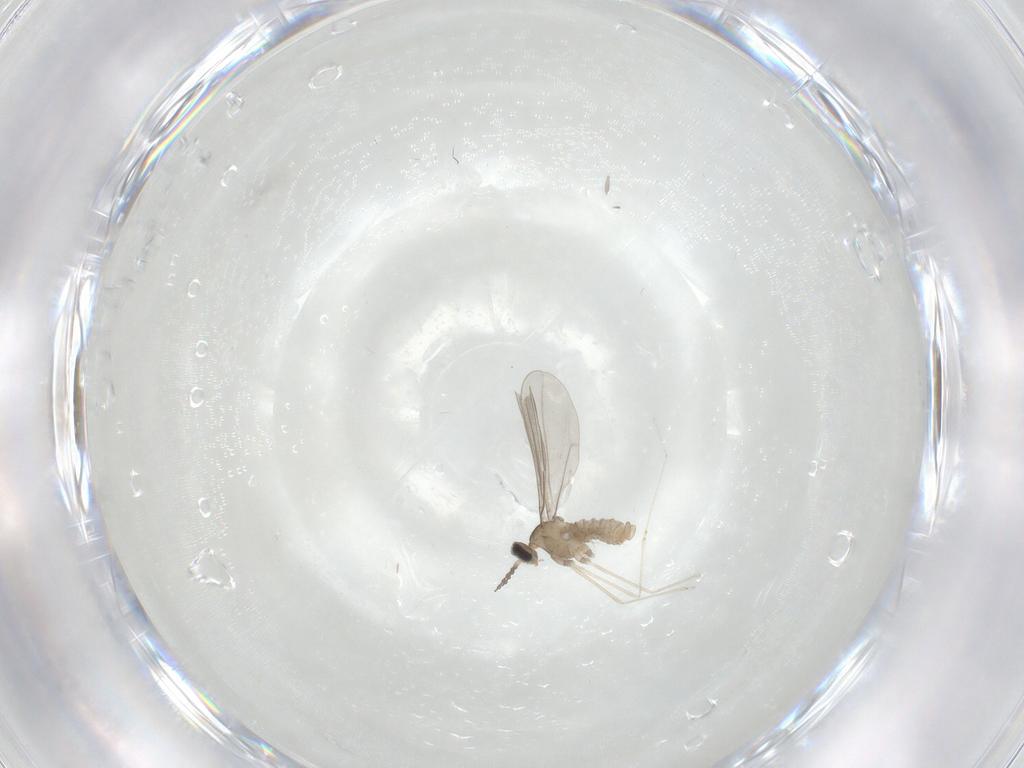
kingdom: Animalia
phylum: Arthropoda
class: Insecta
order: Diptera
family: Cecidomyiidae
